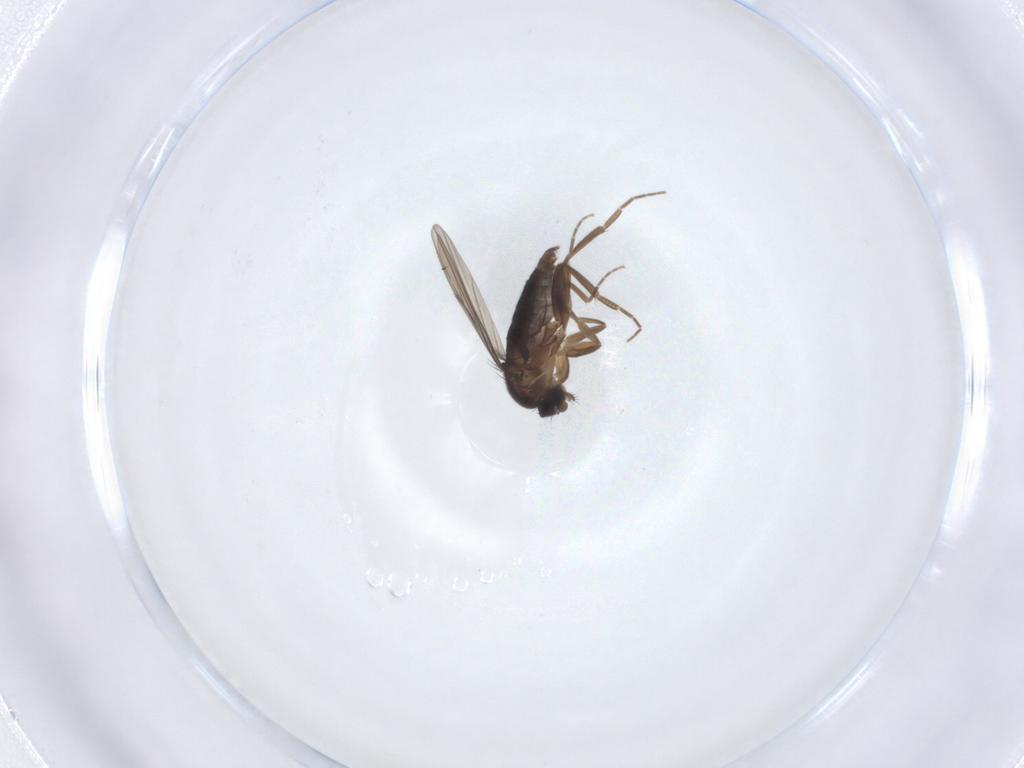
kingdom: Animalia
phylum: Arthropoda
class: Insecta
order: Diptera
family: Phoridae
